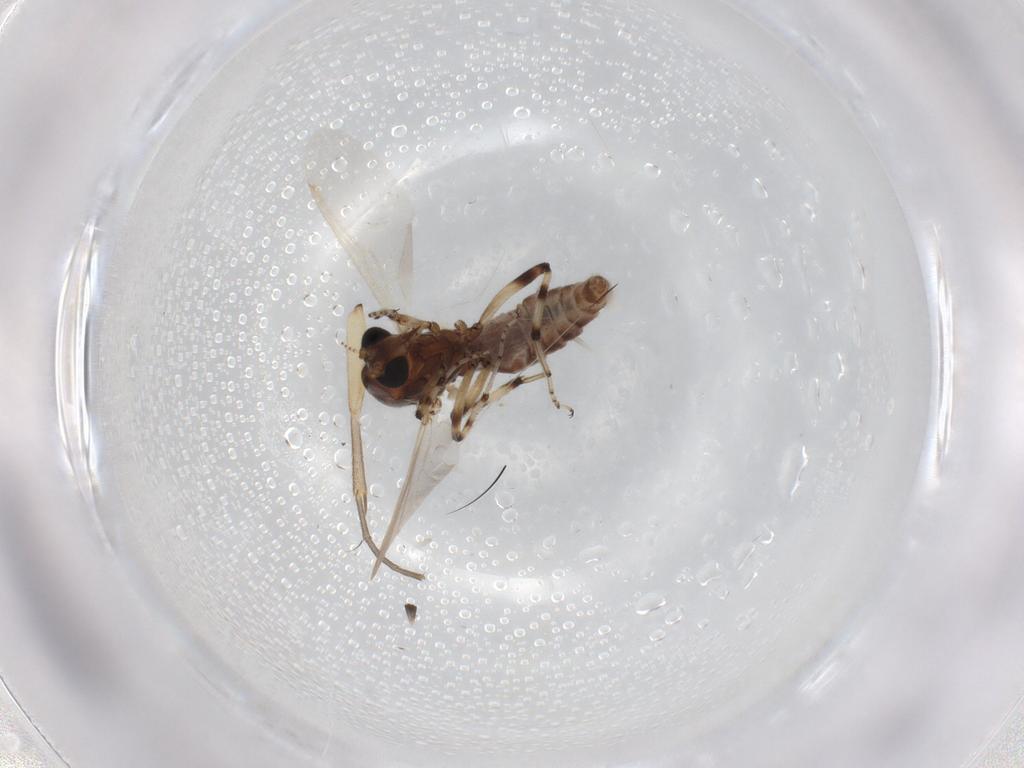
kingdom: Animalia
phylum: Arthropoda
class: Insecta
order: Diptera
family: Ceratopogonidae
